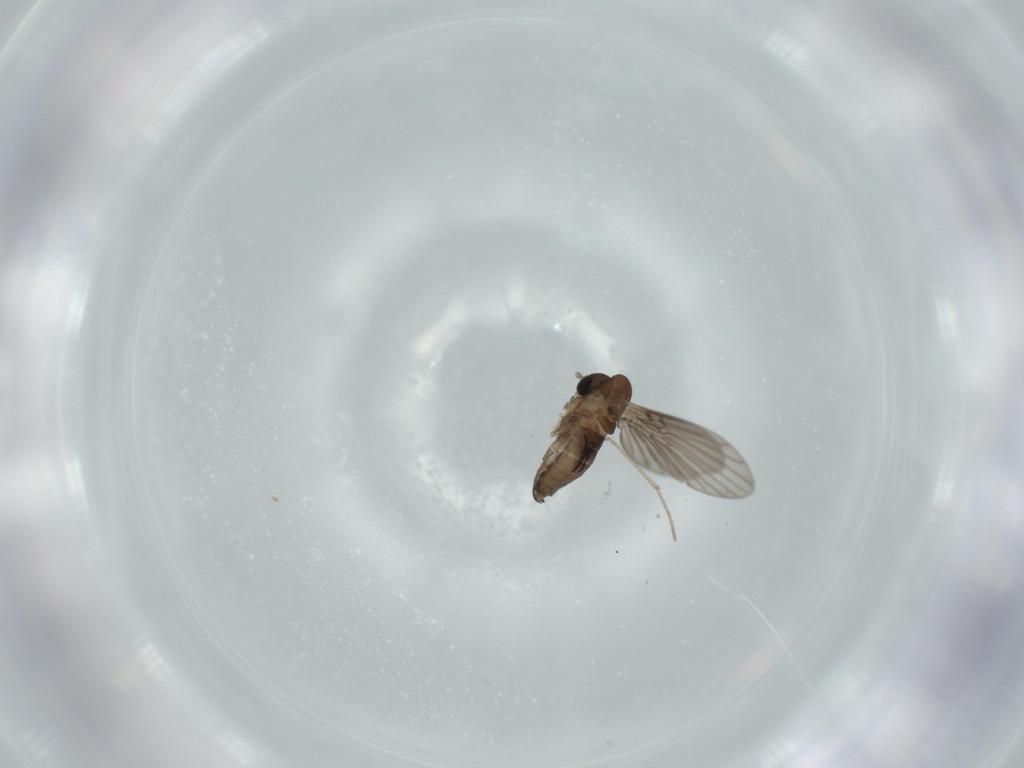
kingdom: Animalia
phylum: Arthropoda
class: Insecta
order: Diptera
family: Psychodidae
